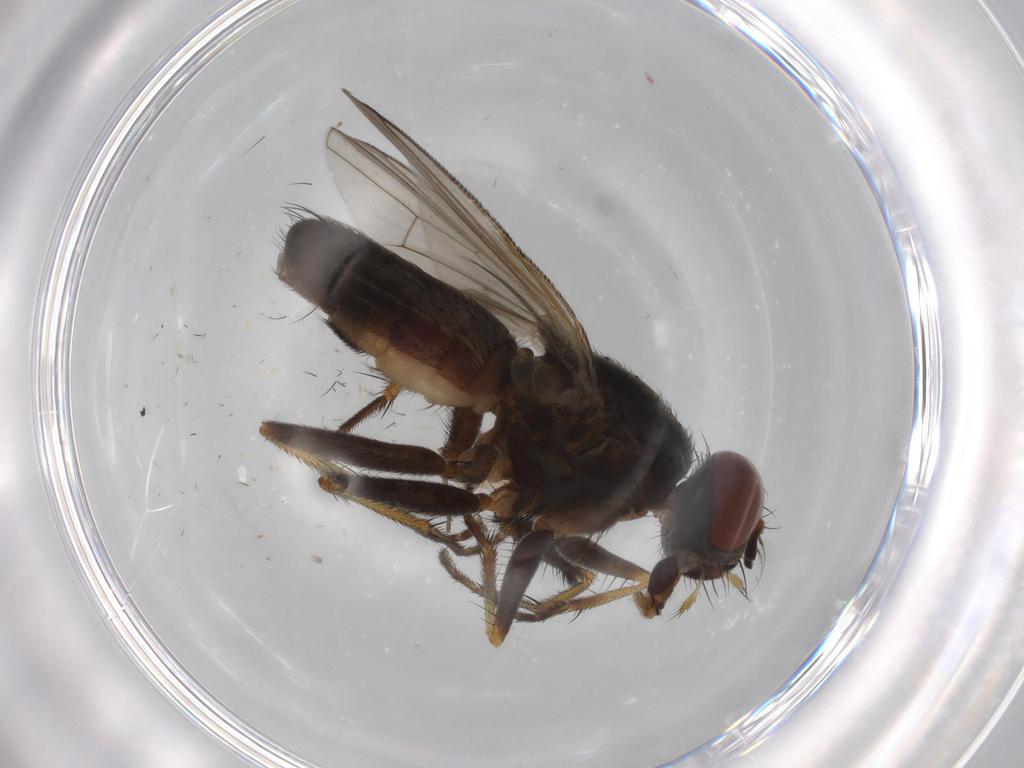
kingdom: Animalia
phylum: Arthropoda
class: Insecta
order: Diptera
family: Muscidae
